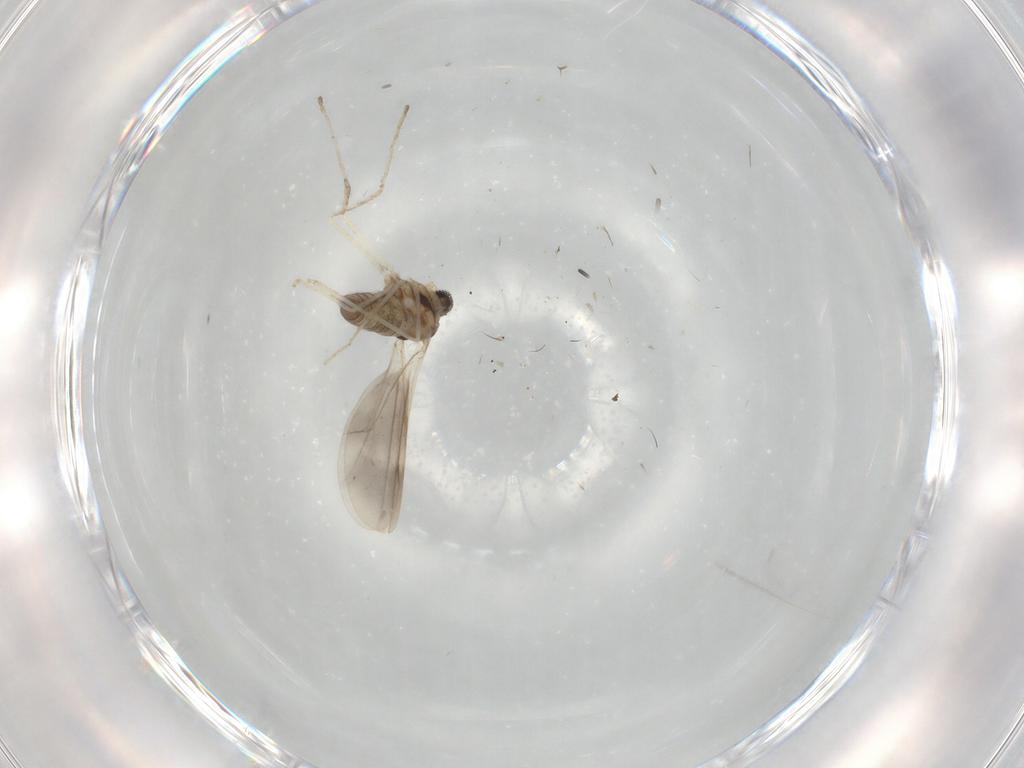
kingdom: Animalia
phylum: Arthropoda
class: Insecta
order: Diptera
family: Cecidomyiidae
